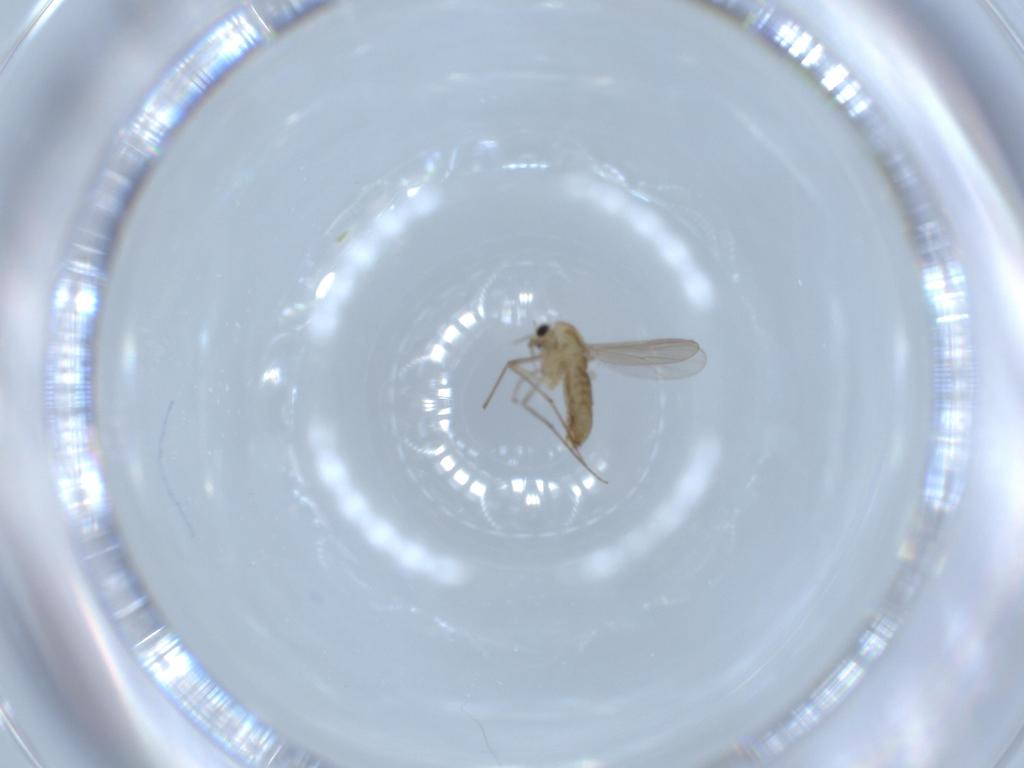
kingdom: Animalia
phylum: Arthropoda
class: Insecta
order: Diptera
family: Chironomidae
